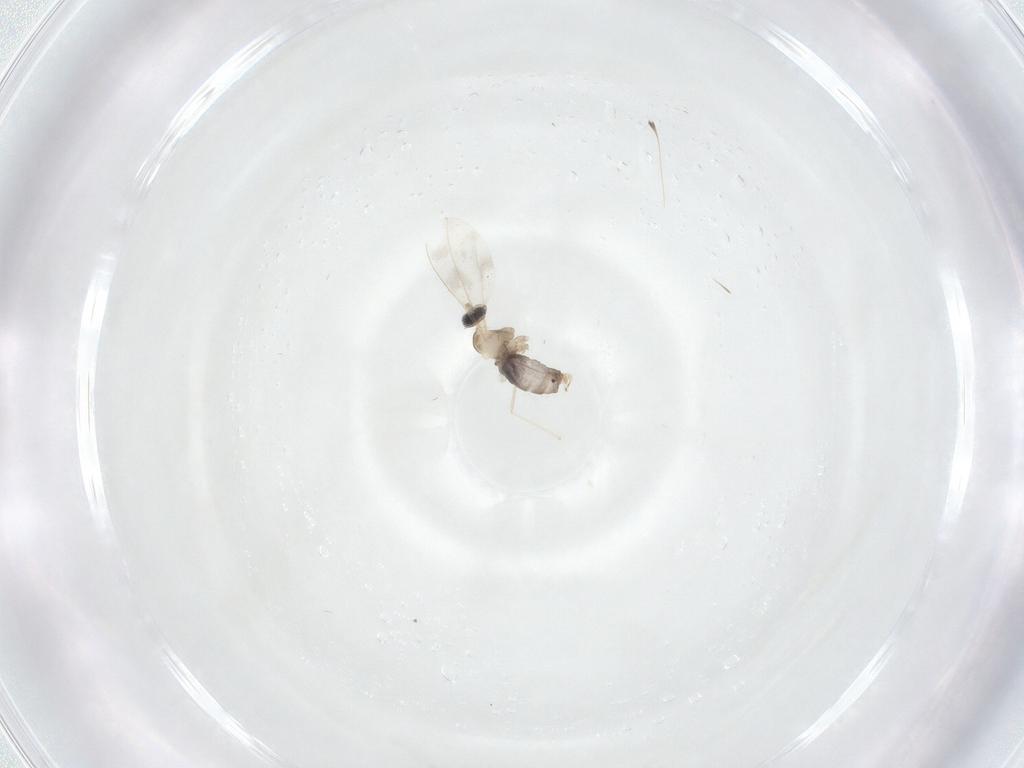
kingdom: Animalia
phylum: Arthropoda
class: Insecta
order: Diptera
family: Cecidomyiidae
